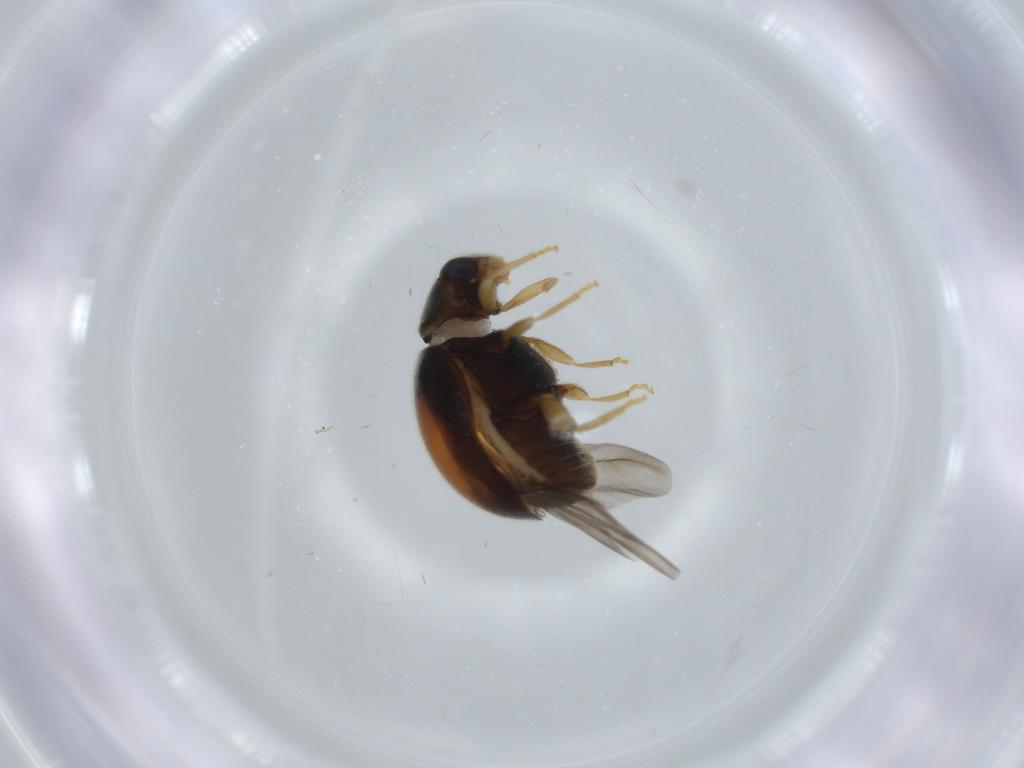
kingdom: Animalia
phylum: Arthropoda
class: Insecta
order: Coleoptera
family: Coccinellidae
